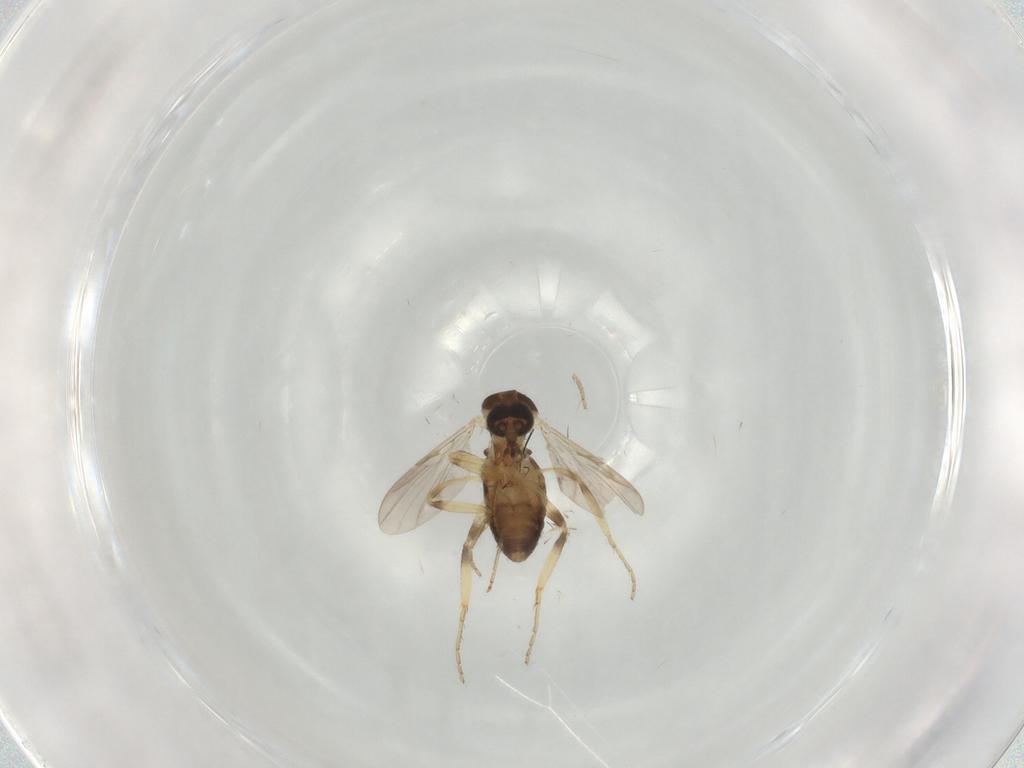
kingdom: Animalia
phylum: Arthropoda
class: Insecta
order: Diptera
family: Ceratopogonidae
